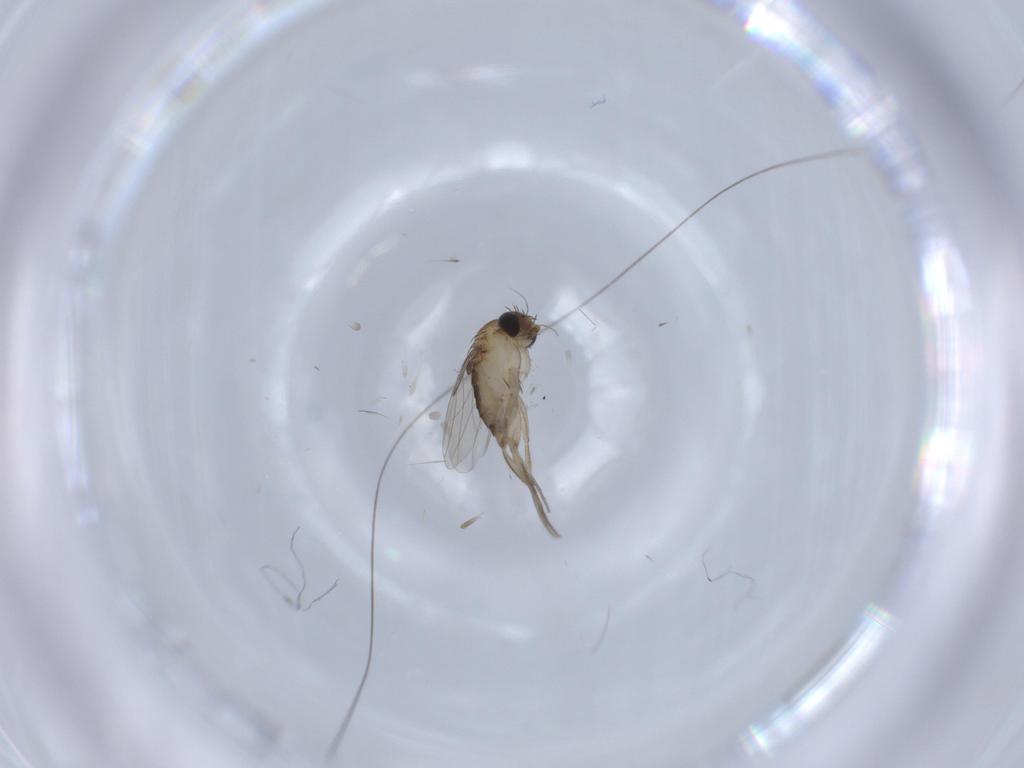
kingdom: Animalia
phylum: Arthropoda
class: Insecta
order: Diptera
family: Phoridae
